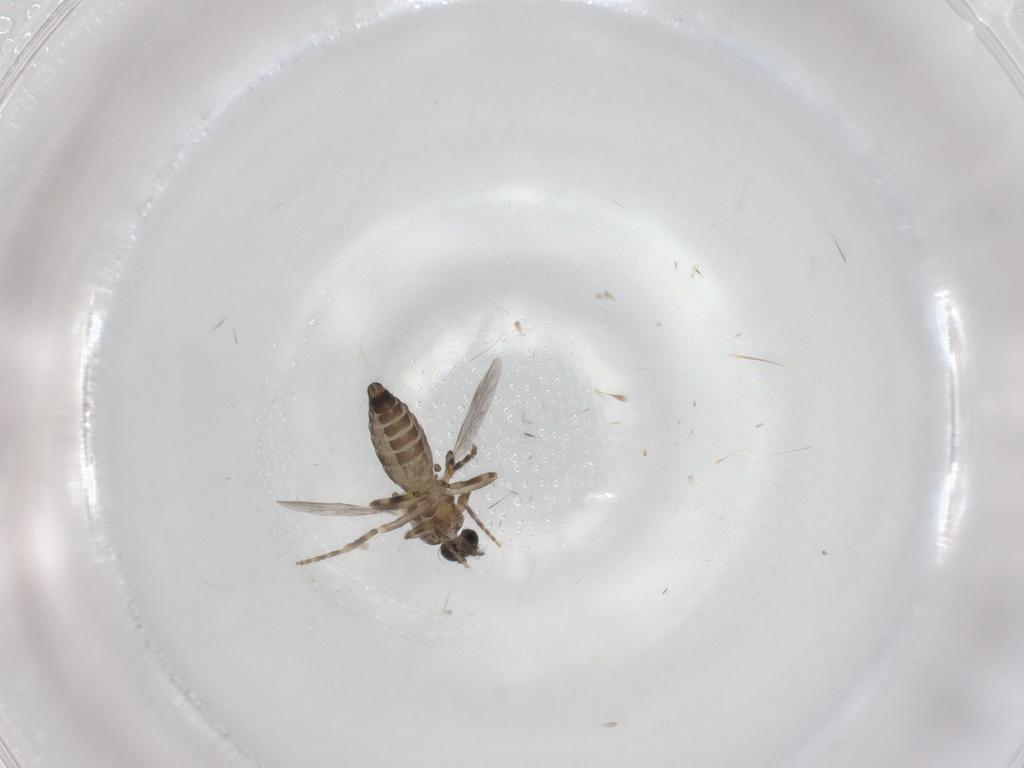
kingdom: Animalia
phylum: Arthropoda
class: Insecta
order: Diptera
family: Ceratopogonidae
